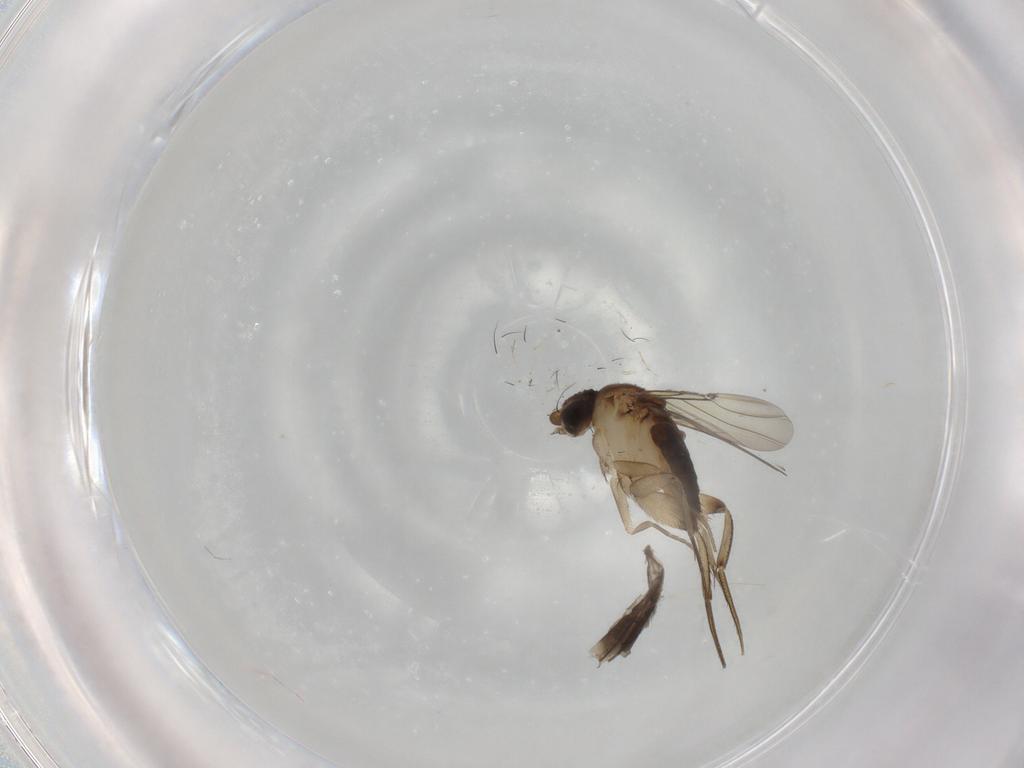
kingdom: Animalia
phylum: Arthropoda
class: Insecta
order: Diptera
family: Phoridae
